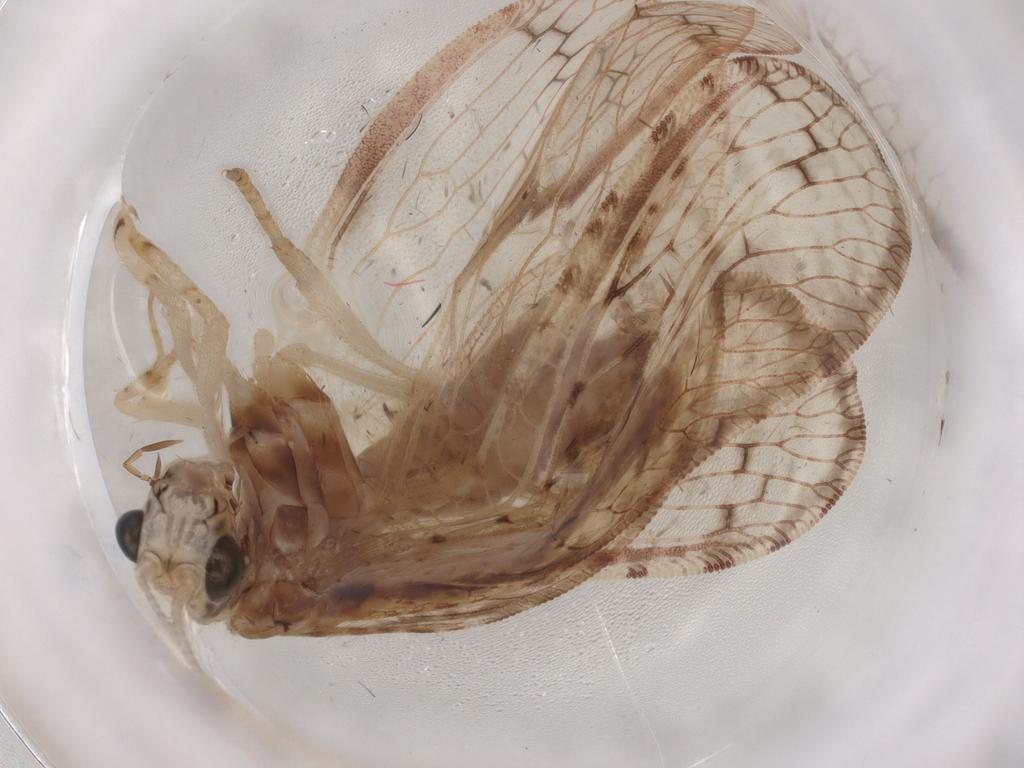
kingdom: Animalia
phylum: Arthropoda
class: Insecta
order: Neuroptera
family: Hemerobiidae
